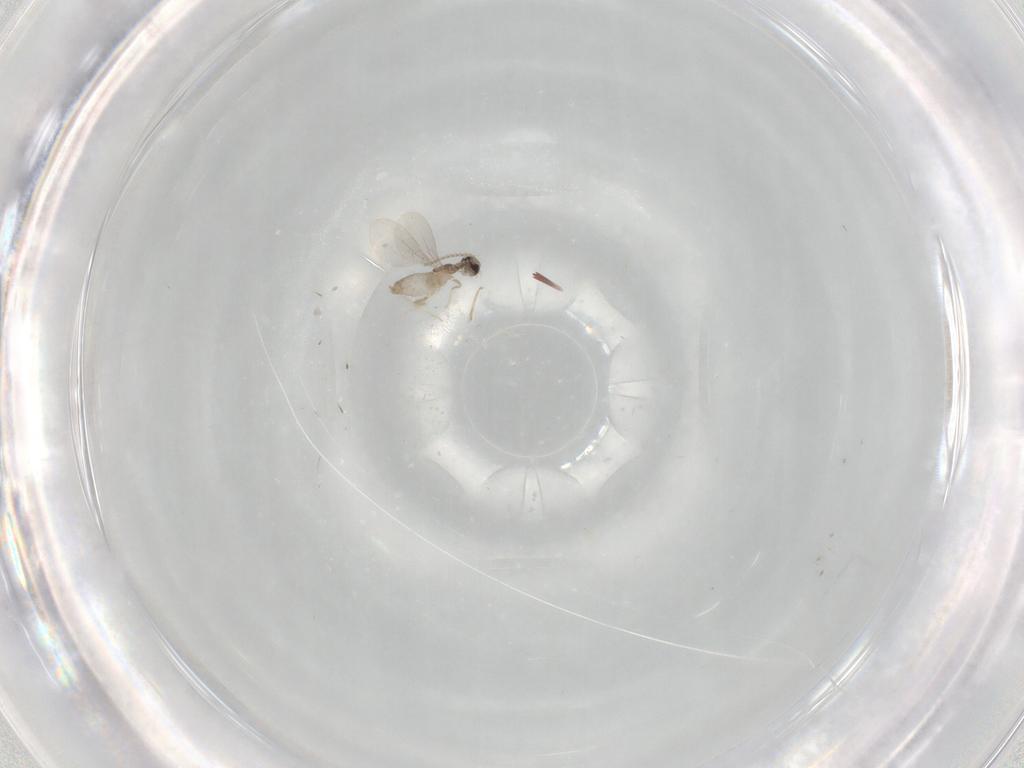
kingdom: Animalia
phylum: Arthropoda
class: Insecta
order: Diptera
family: Cecidomyiidae
